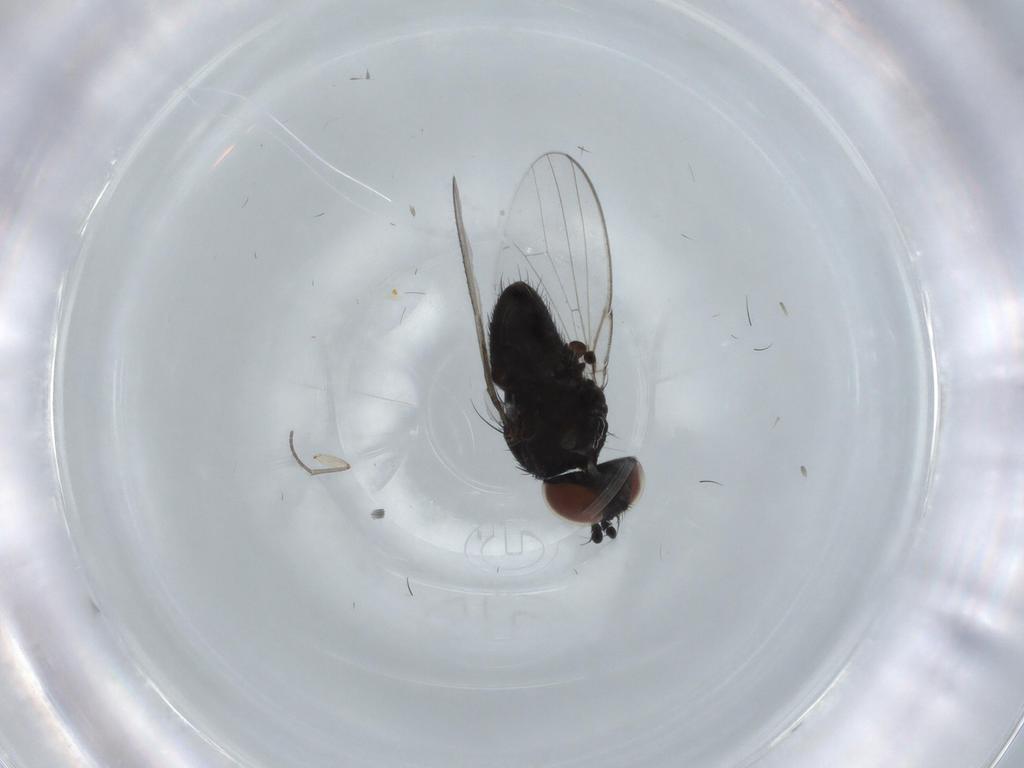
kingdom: Animalia
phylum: Arthropoda
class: Insecta
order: Diptera
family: Sciaridae
